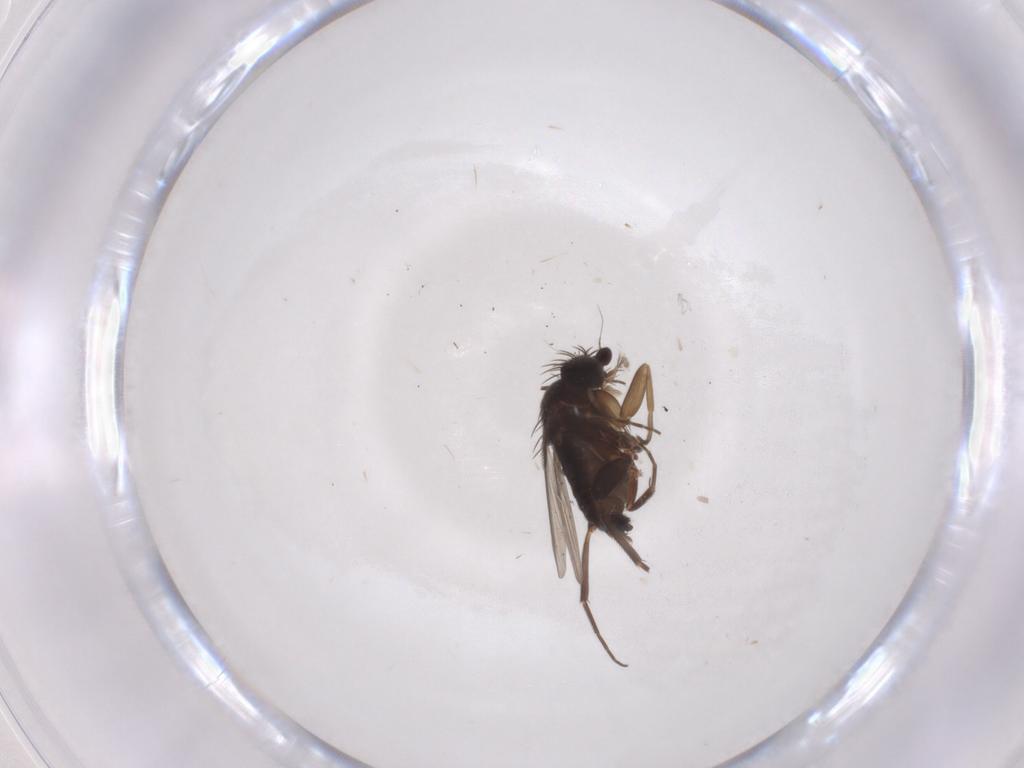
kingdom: Animalia
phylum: Arthropoda
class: Insecta
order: Diptera
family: Phoridae
